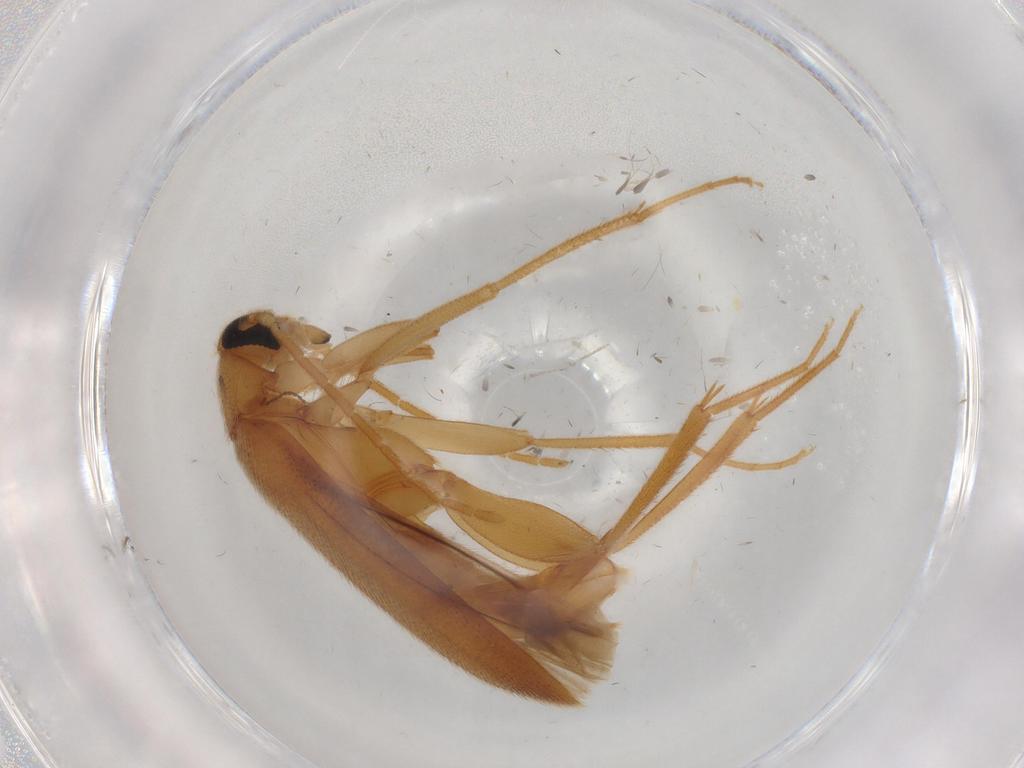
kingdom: Animalia
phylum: Arthropoda
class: Insecta
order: Coleoptera
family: Scraptiidae
